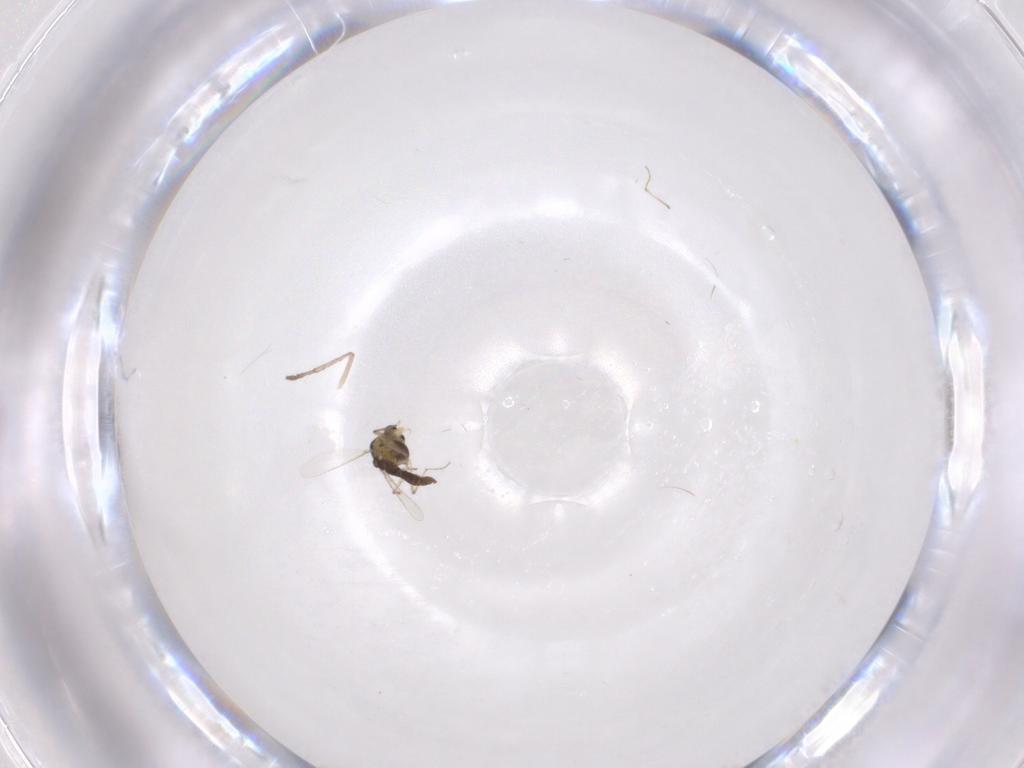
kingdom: Animalia
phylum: Arthropoda
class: Insecta
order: Diptera
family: Chironomidae
